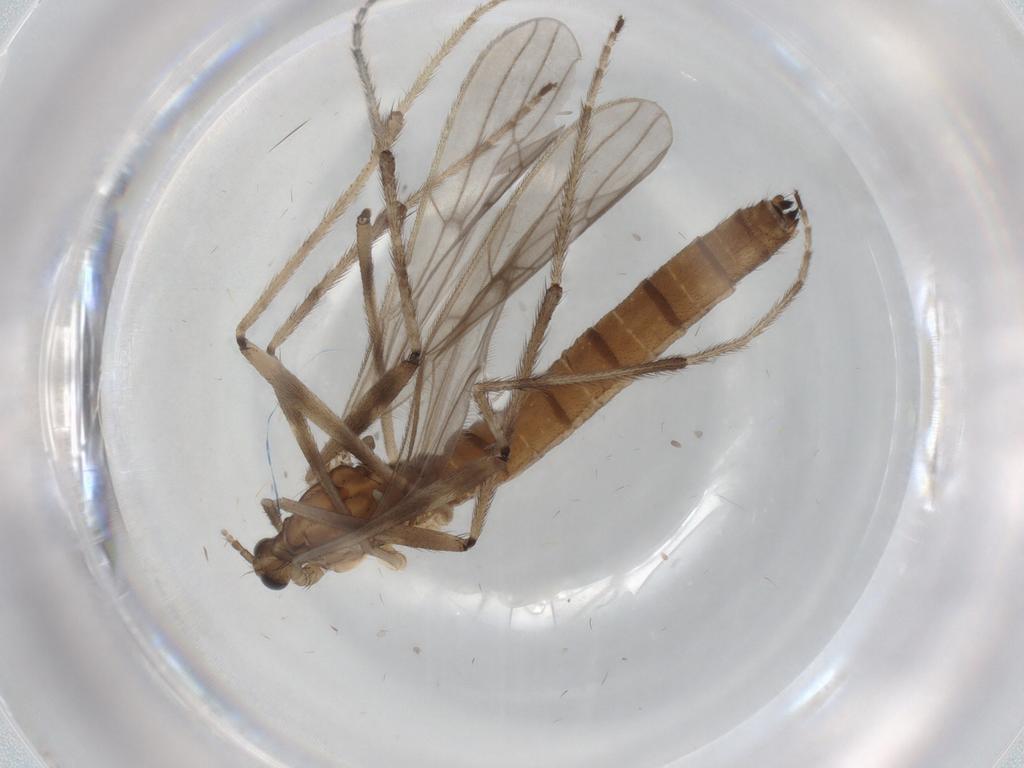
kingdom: Animalia
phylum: Arthropoda
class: Insecta
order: Diptera
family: Limoniidae
